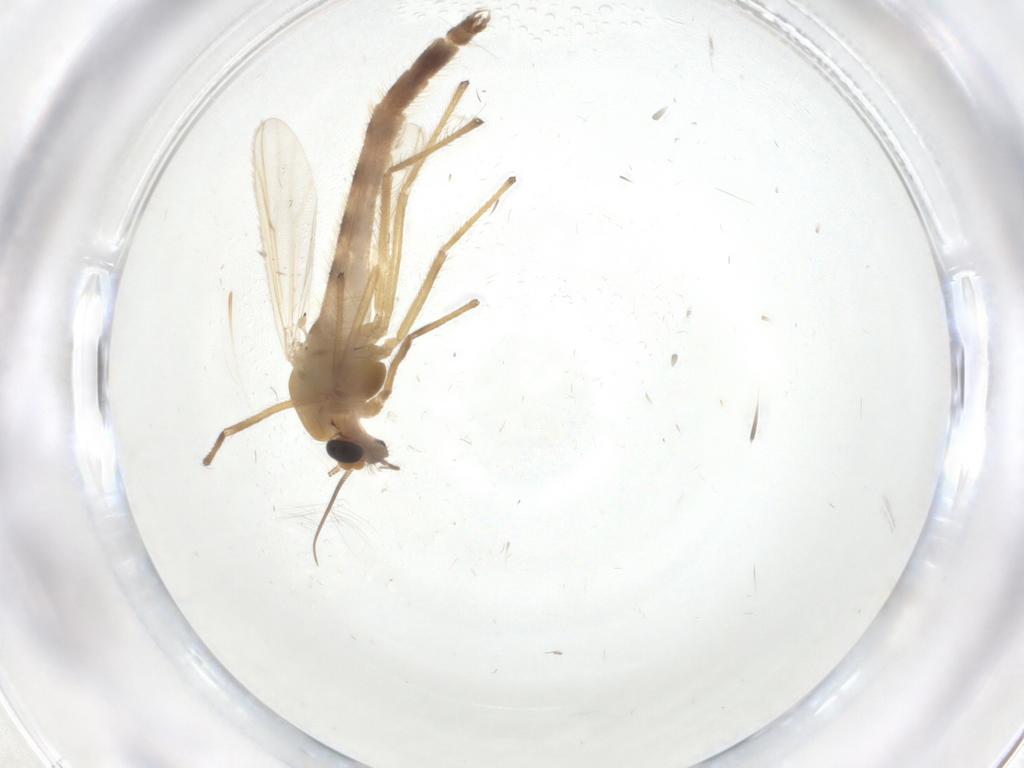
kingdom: Animalia
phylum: Arthropoda
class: Insecta
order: Diptera
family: Chironomidae
